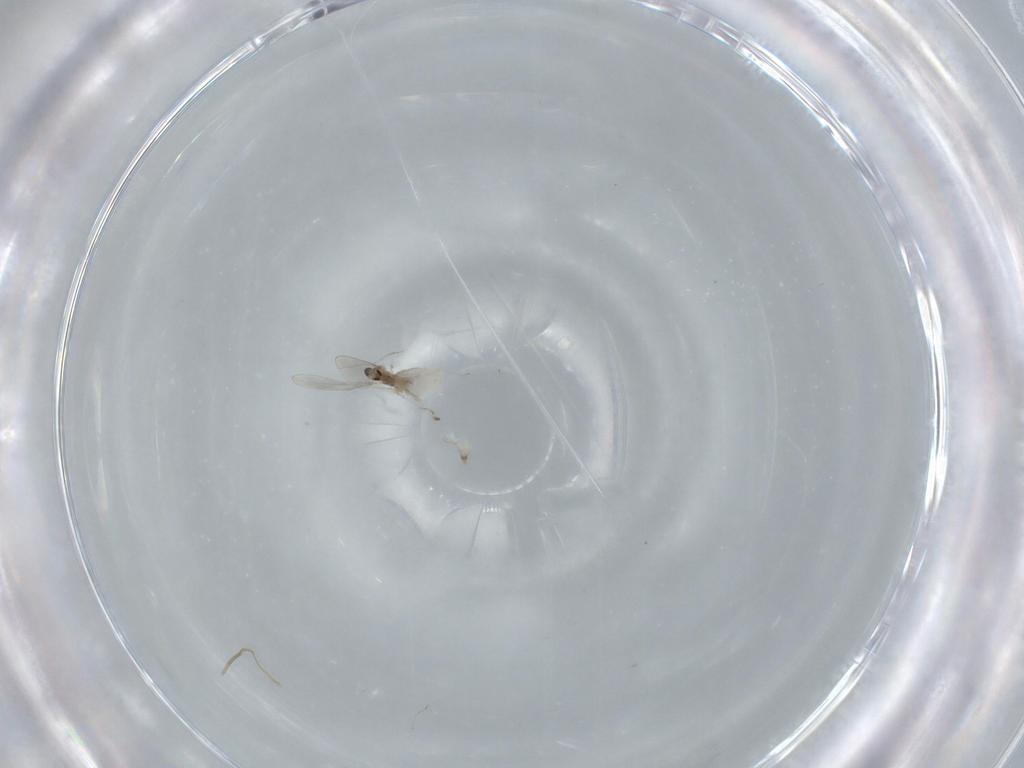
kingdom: Animalia
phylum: Arthropoda
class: Insecta
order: Diptera
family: Cecidomyiidae
